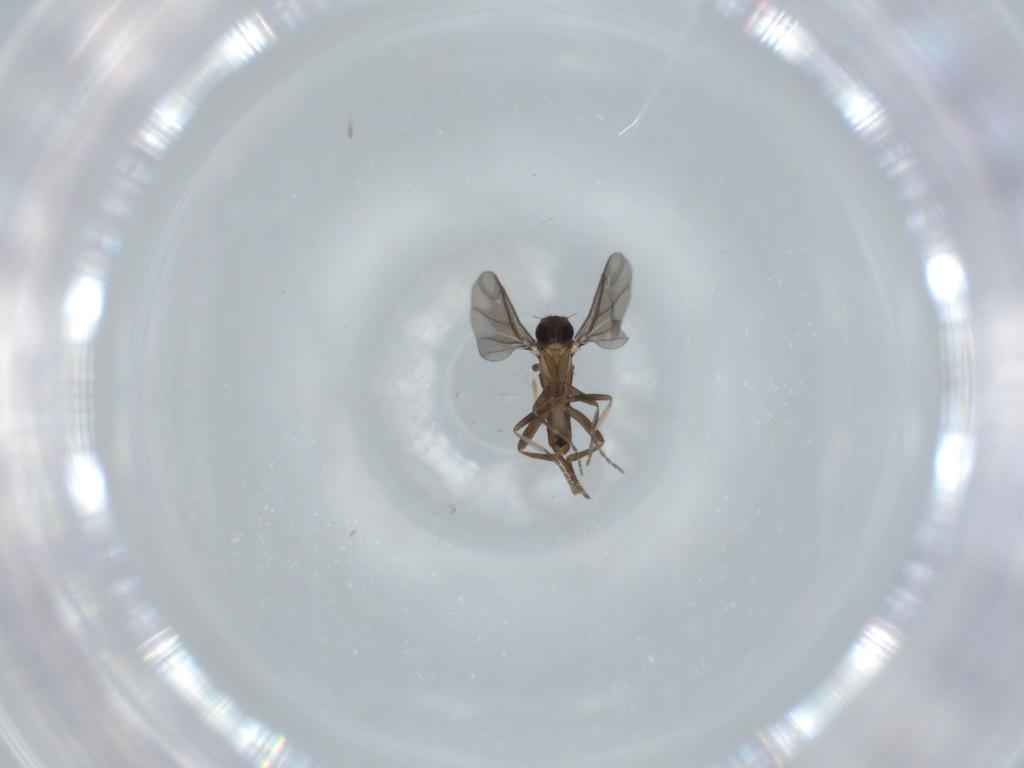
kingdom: Animalia
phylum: Arthropoda
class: Insecta
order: Diptera
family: Phoridae
